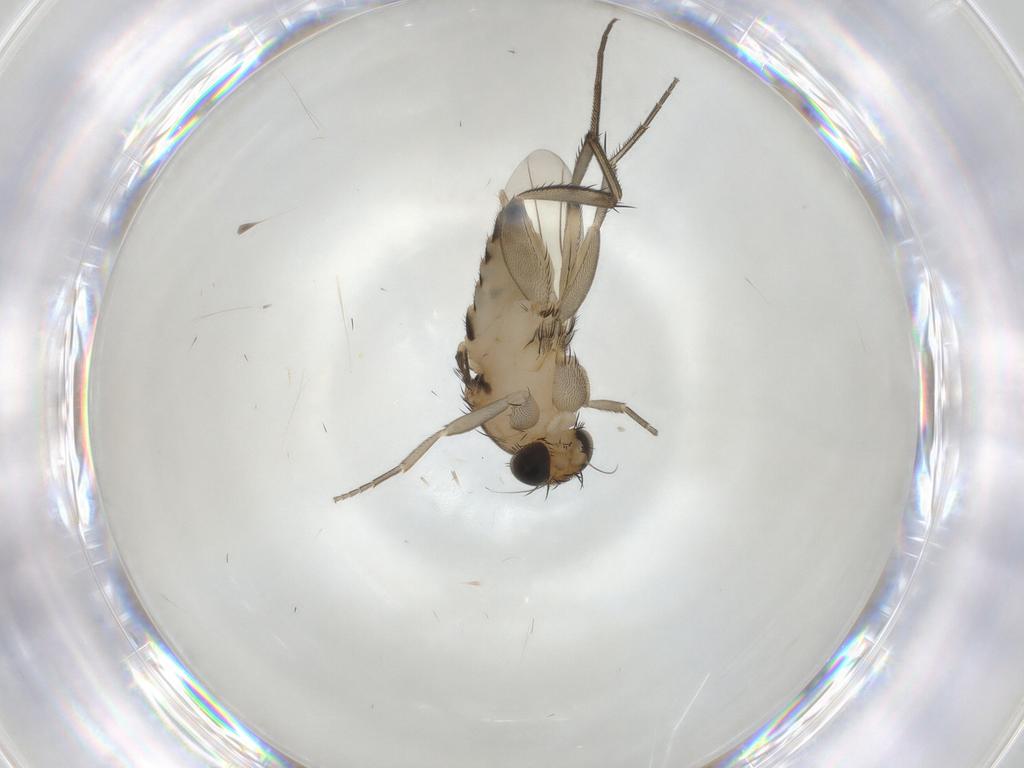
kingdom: Animalia
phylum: Arthropoda
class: Insecta
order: Diptera
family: Phoridae
